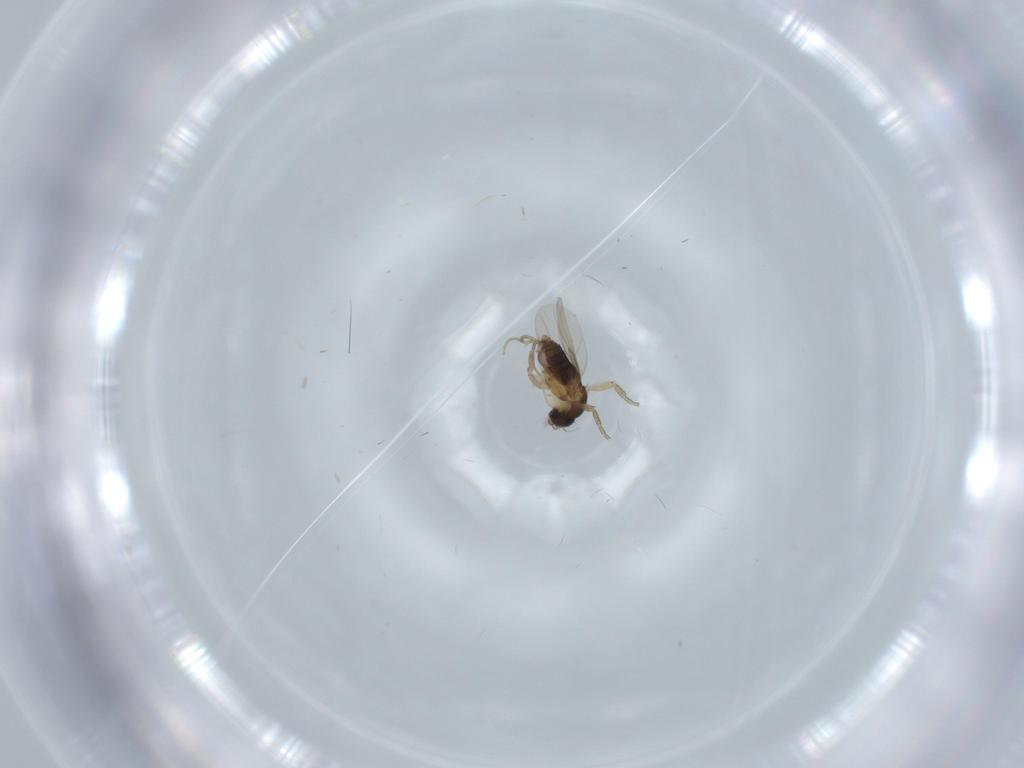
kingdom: Animalia
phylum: Arthropoda
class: Insecta
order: Diptera
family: Phoridae
